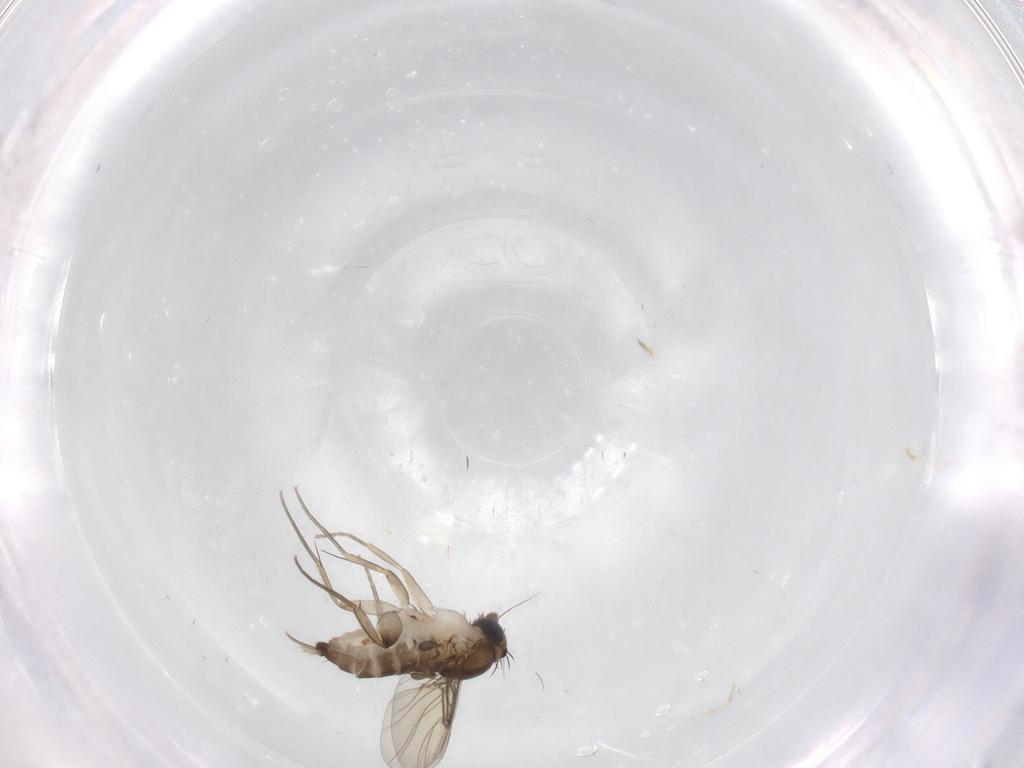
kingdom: Animalia
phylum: Arthropoda
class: Insecta
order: Diptera
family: Phoridae
